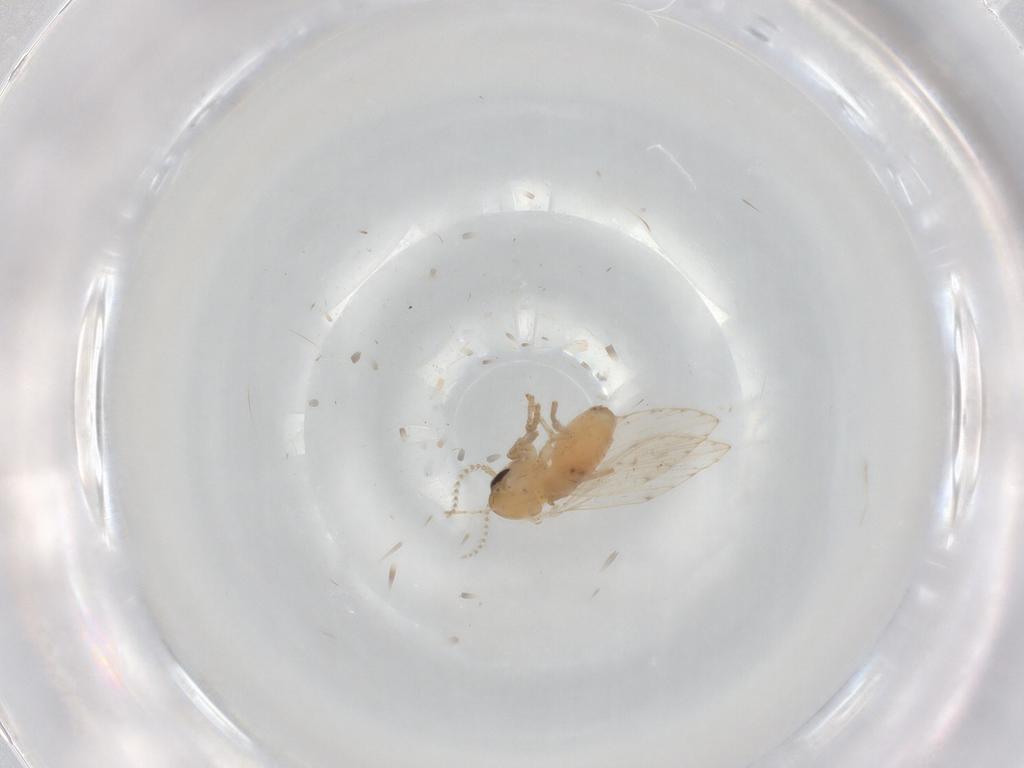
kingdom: Animalia
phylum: Arthropoda
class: Insecta
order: Diptera
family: Psychodidae
